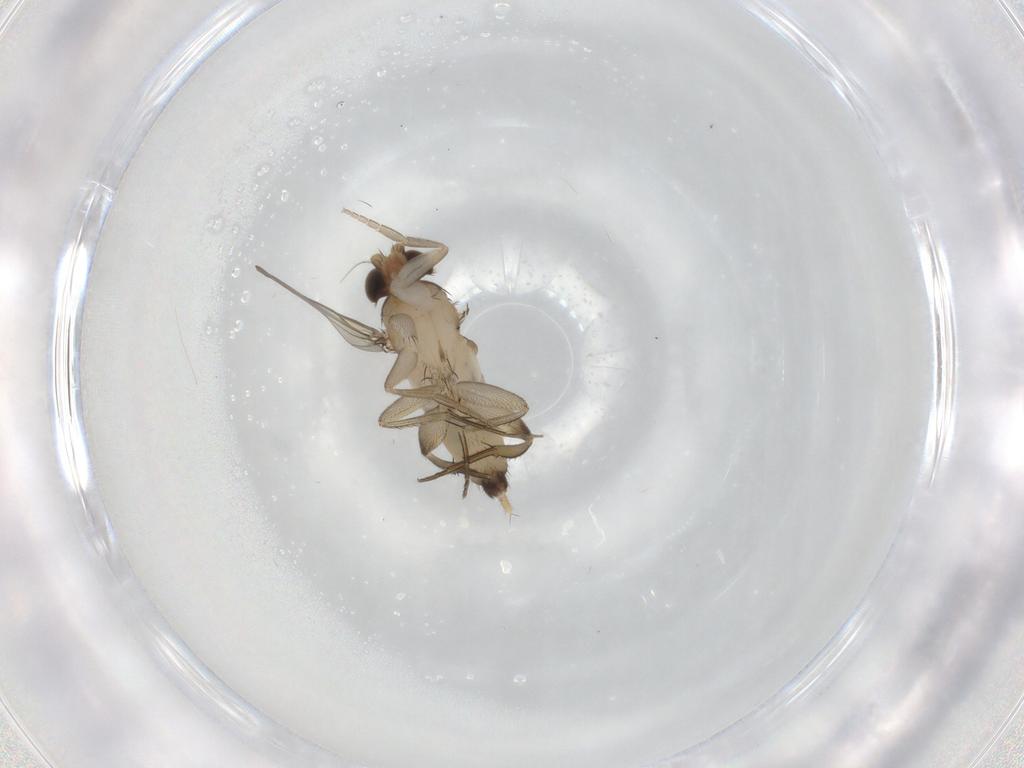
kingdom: Animalia
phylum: Arthropoda
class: Insecta
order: Diptera
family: Phoridae
